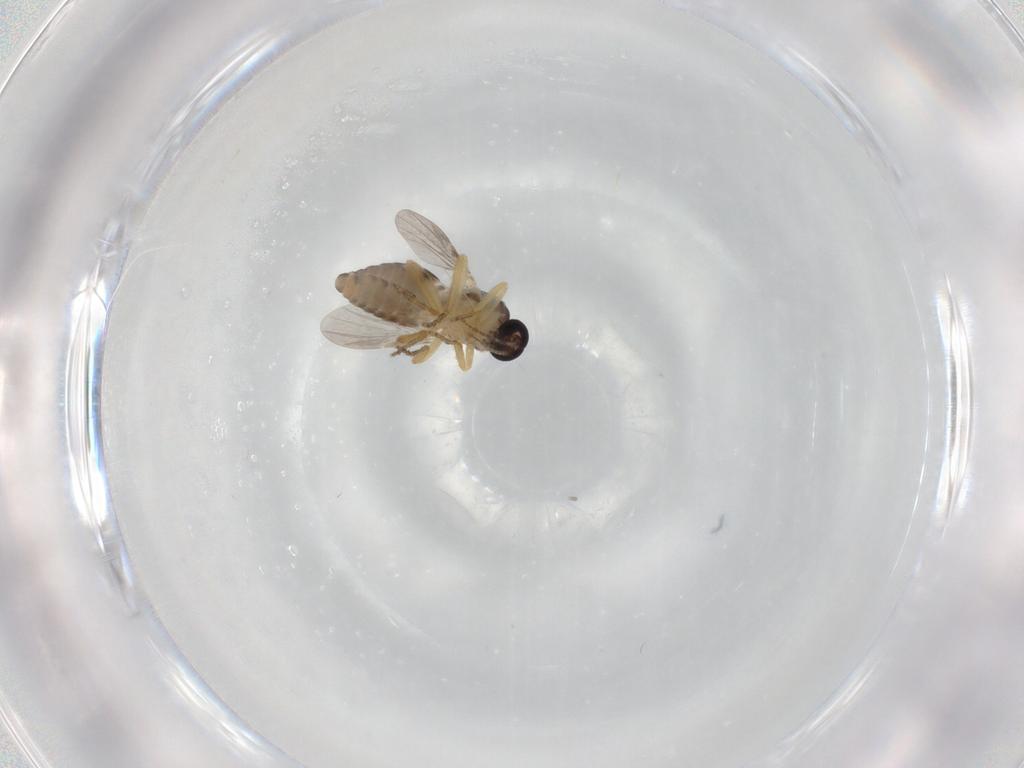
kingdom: Animalia
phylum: Arthropoda
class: Insecta
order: Diptera
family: Ceratopogonidae
